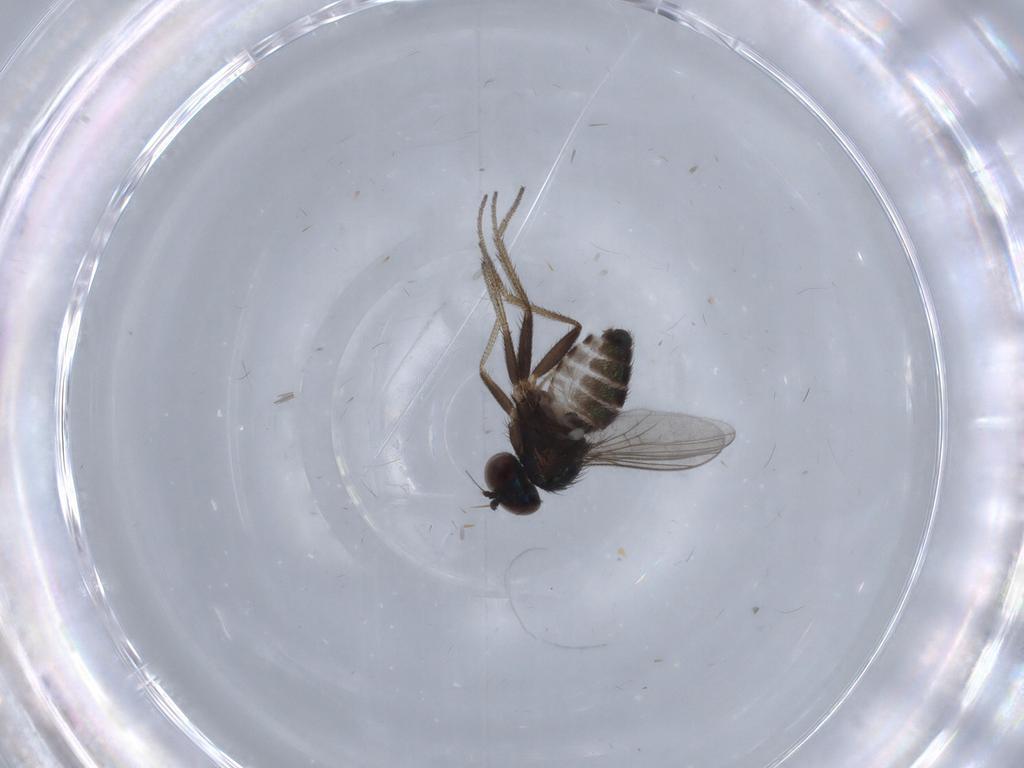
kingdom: Animalia
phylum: Arthropoda
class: Insecta
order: Diptera
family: Dolichopodidae
